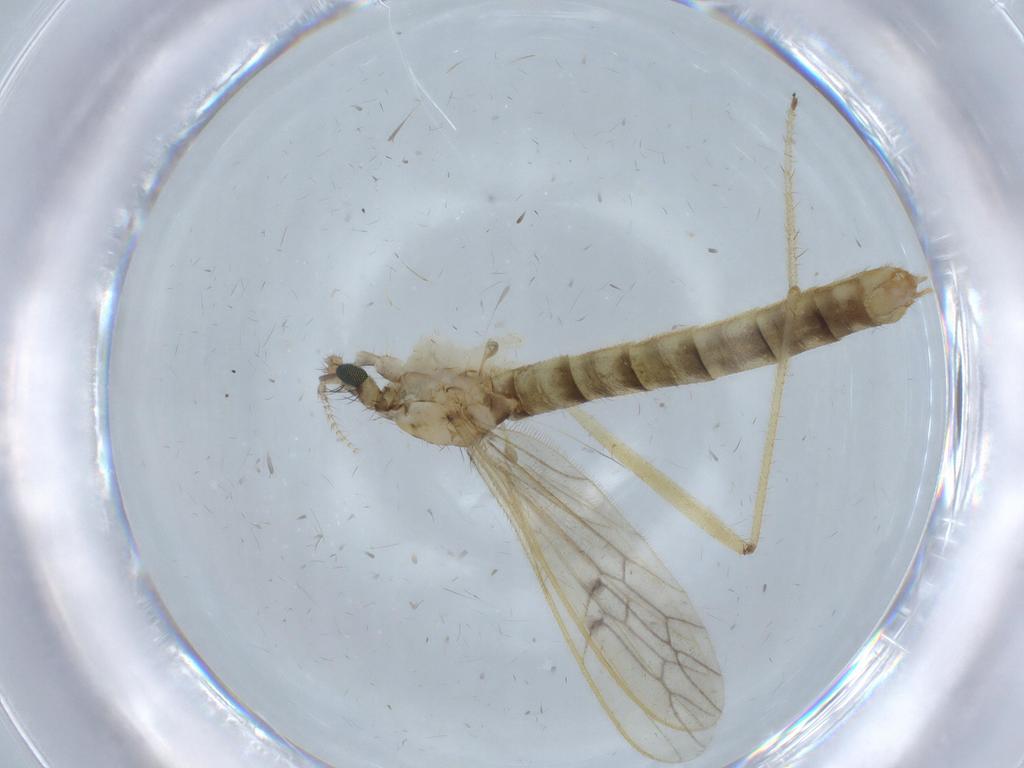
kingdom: Animalia
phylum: Arthropoda
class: Insecta
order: Diptera
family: Limoniidae
